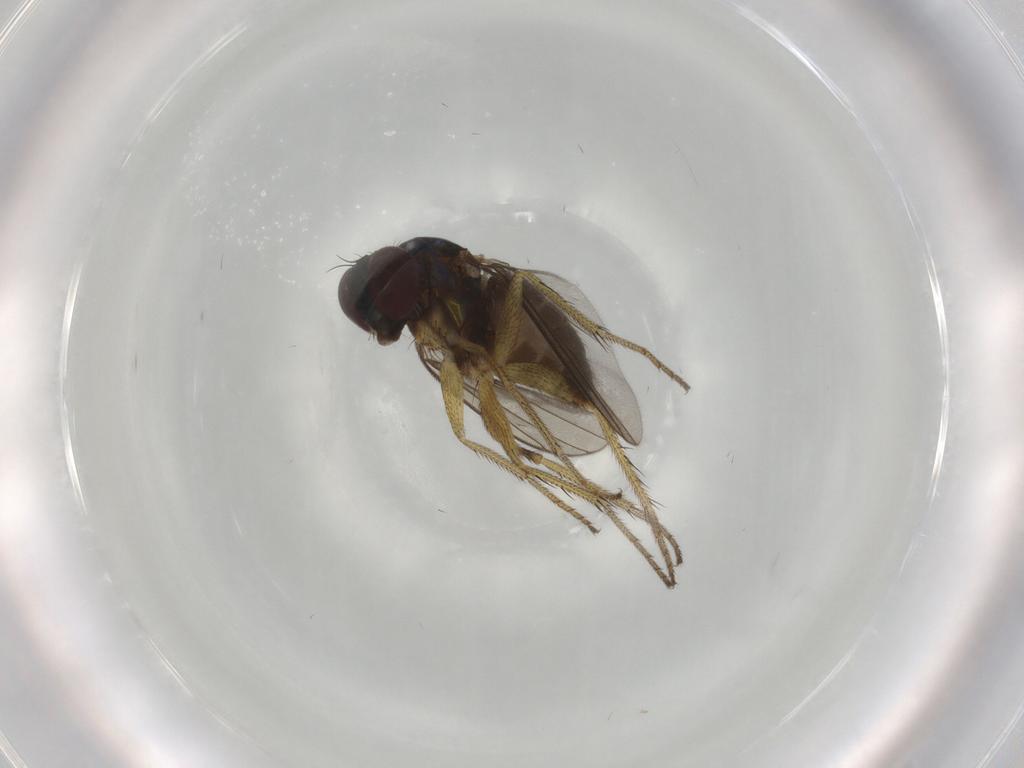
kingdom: Animalia
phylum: Arthropoda
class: Insecta
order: Diptera
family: Dolichopodidae
